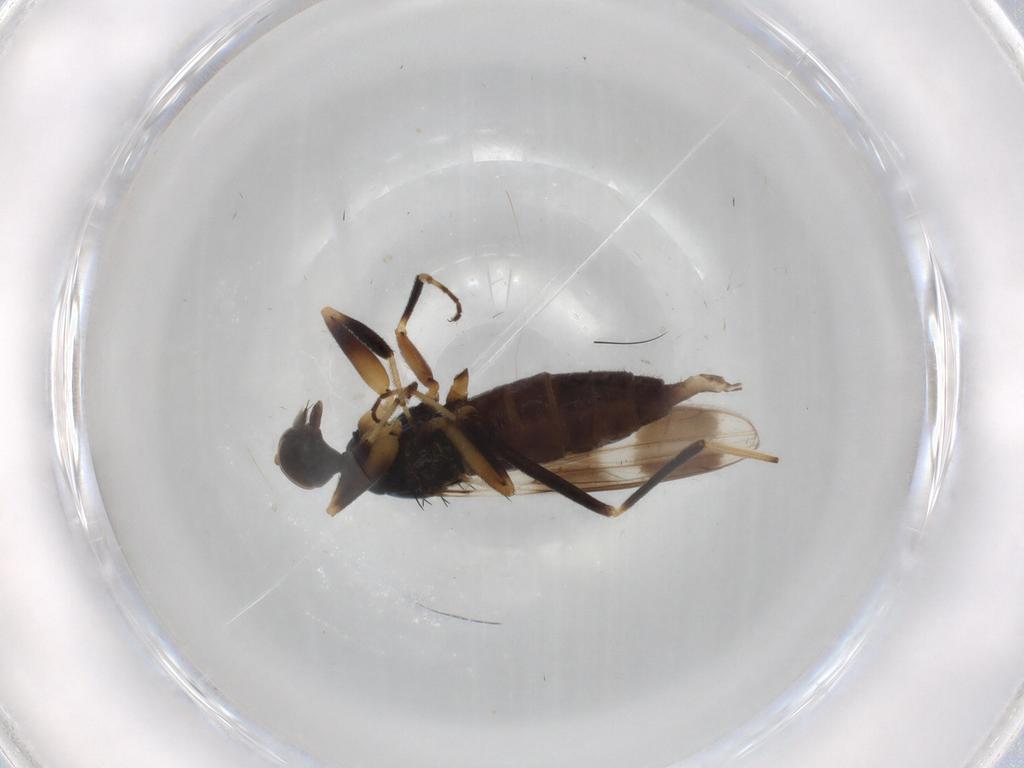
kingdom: Animalia
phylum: Arthropoda
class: Insecta
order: Diptera
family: Hybotidae
